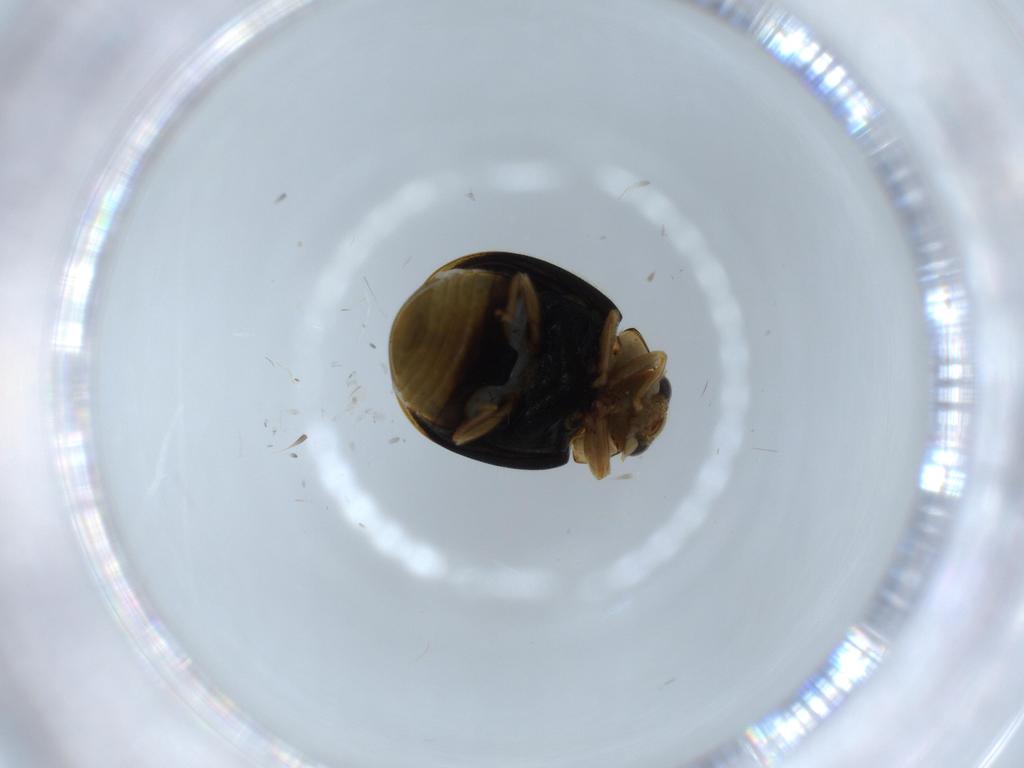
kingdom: Animalia
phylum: Arthropoda
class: Insecta
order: Coleoptera
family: Coccinellidae
